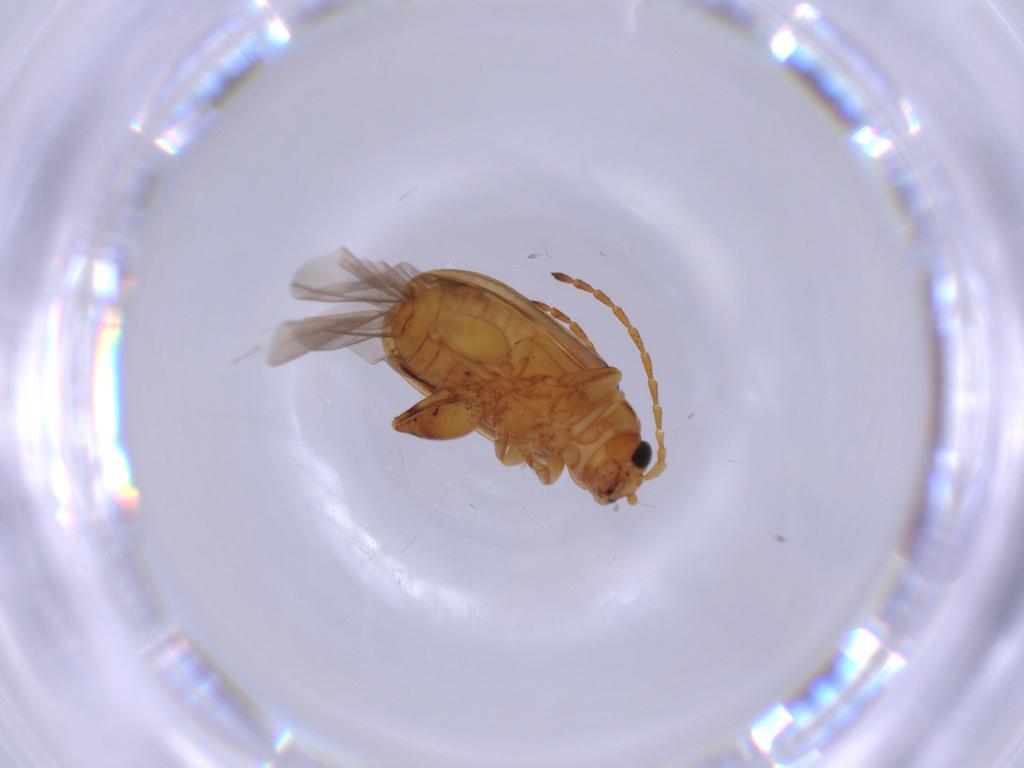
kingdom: Animalia
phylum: Arthropoda
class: Insecta
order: Coleoptera
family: Chrysomelidae
